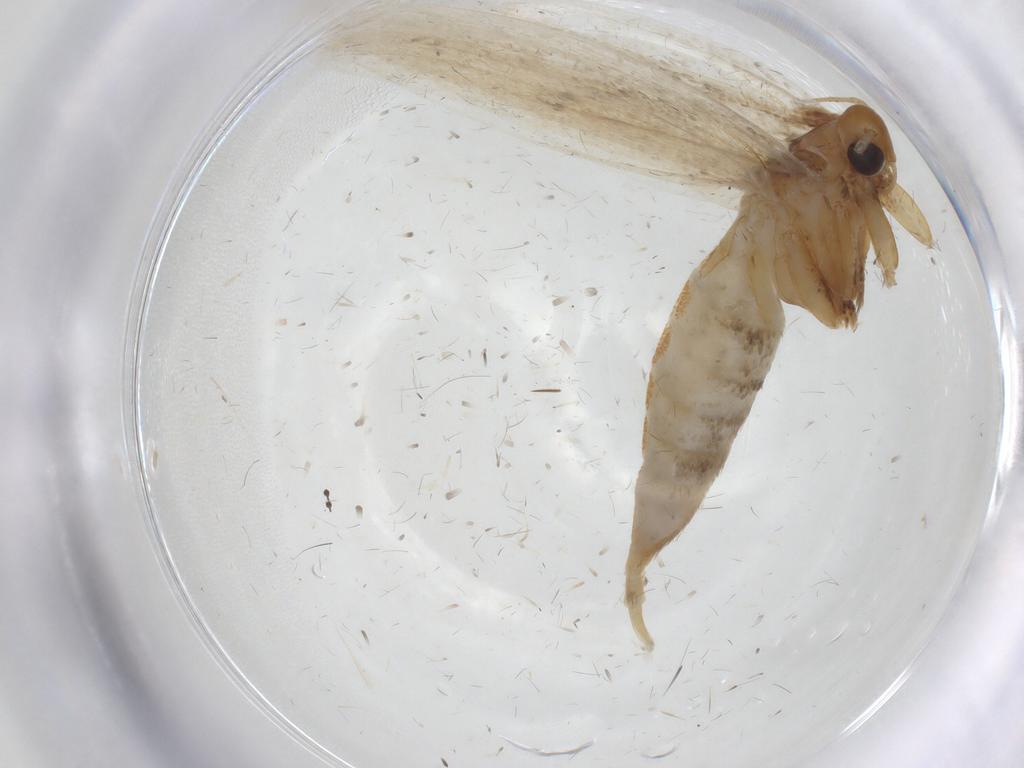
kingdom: Animalia
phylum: Arthropoda
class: Insecta
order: Lepidoptera
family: Oecophoridae
